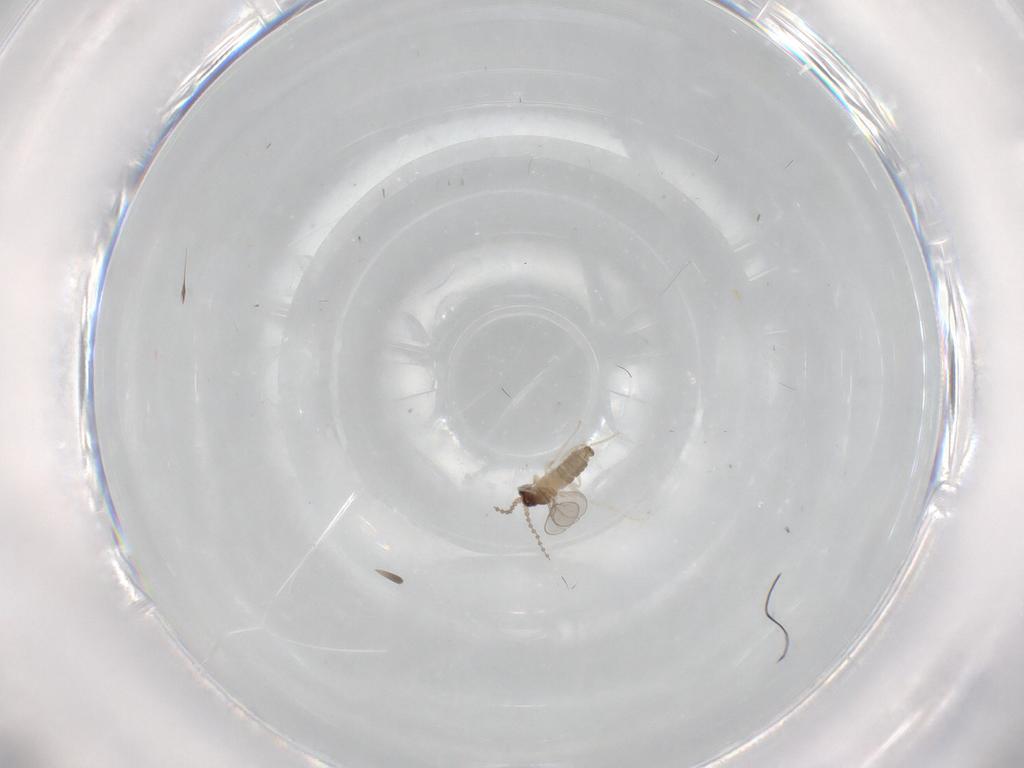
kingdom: Animalia
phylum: Arthropoda
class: Insecta
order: Diptera
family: Cecidomyiidae
